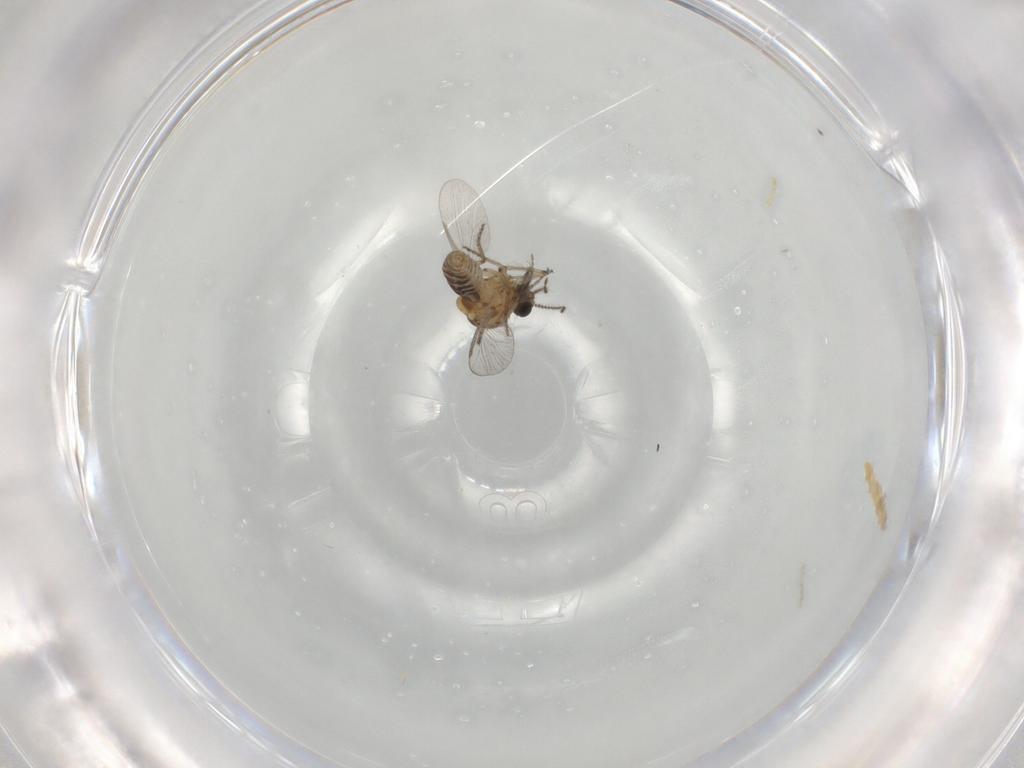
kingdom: Animalia
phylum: Arthropoda
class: Insecta
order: Diptera
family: Ceratopogonidae
